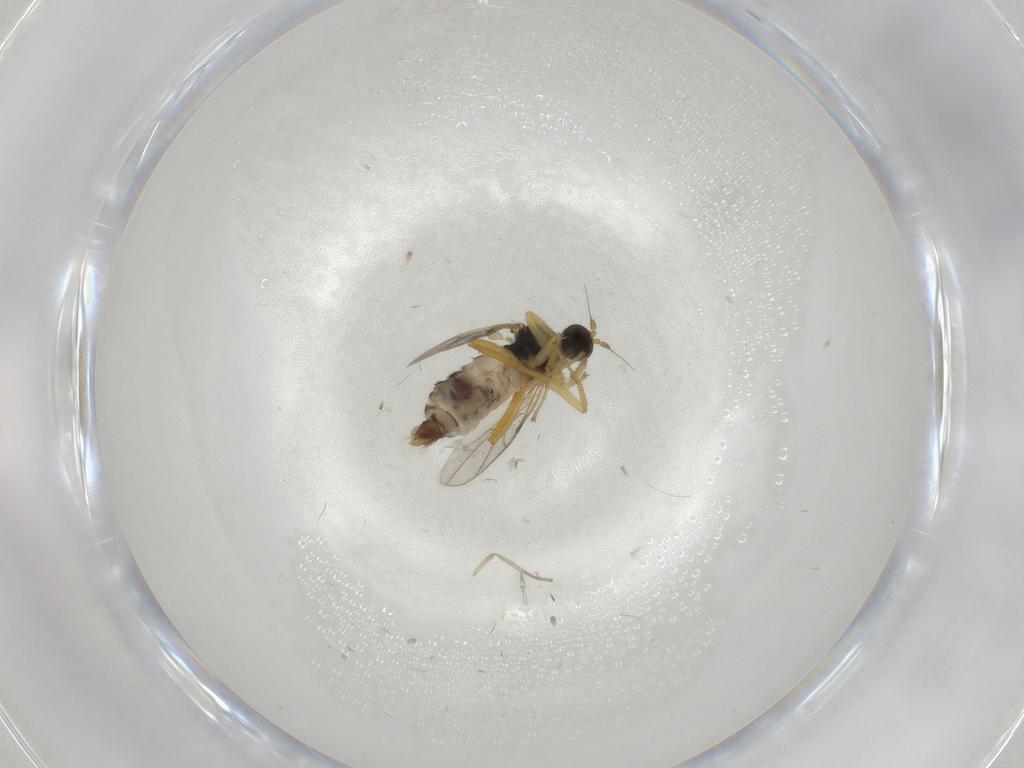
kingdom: Animalia
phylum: Arthropoda
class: Insecta
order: Diptera
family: Hybotidae
